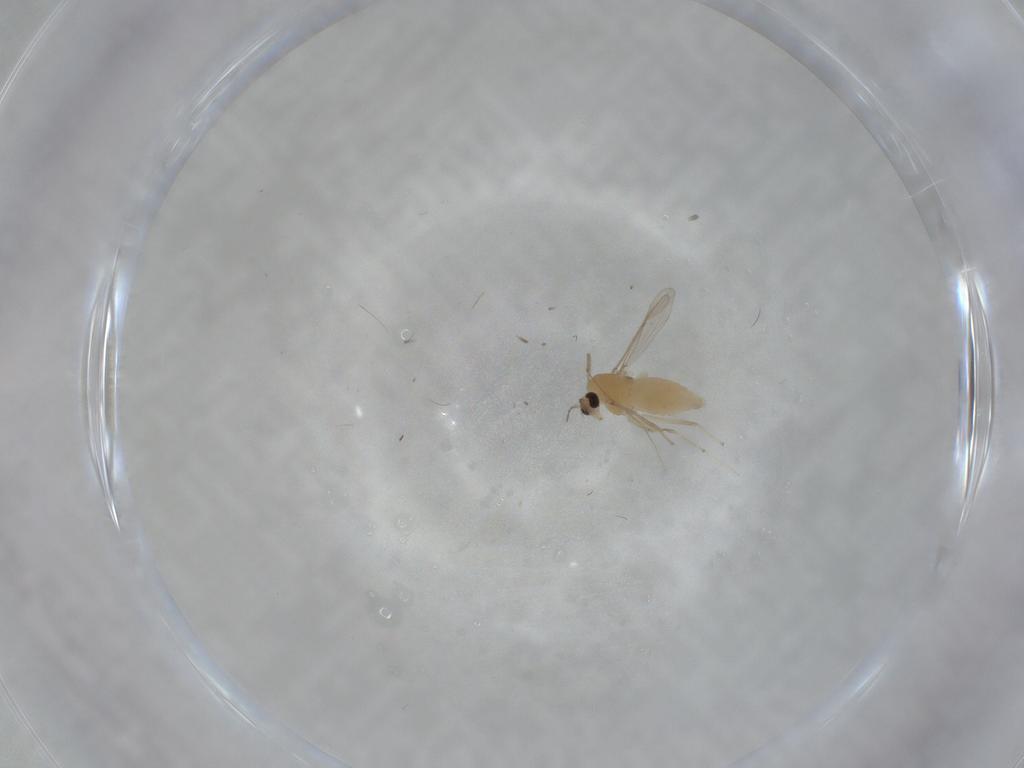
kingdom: Animalia
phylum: Arthropoda
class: Insecta
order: Diptera
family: Chironomidae
